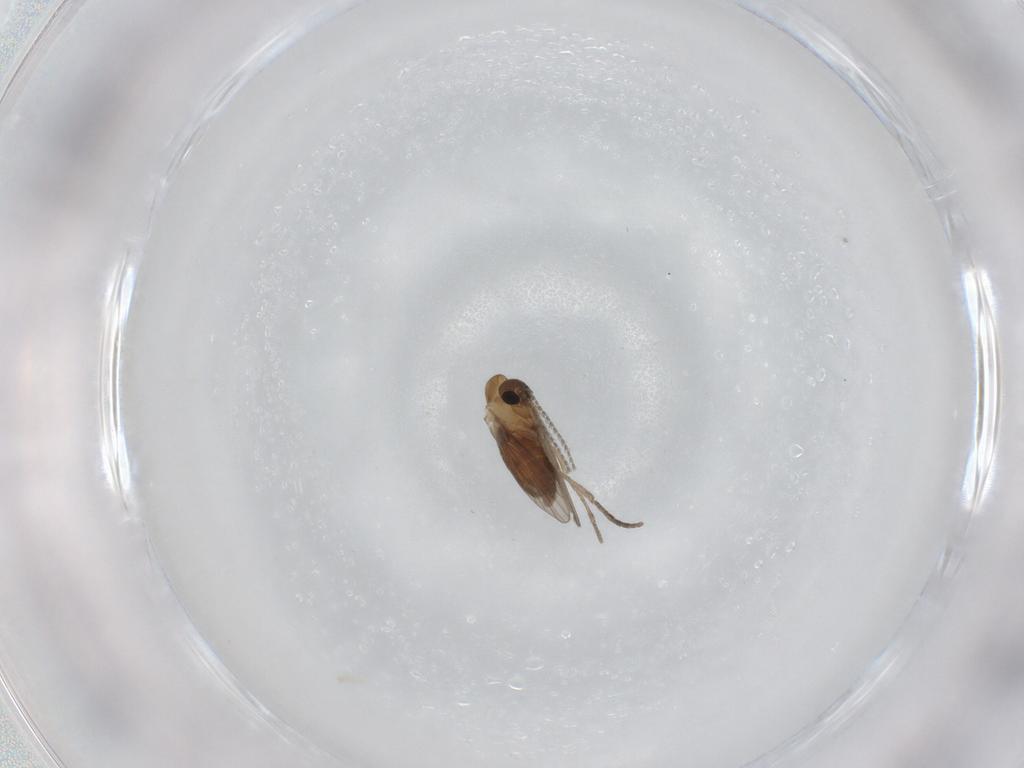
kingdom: Animalia
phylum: Arthropoda
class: Insecta
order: Diptera
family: Psychodidae
